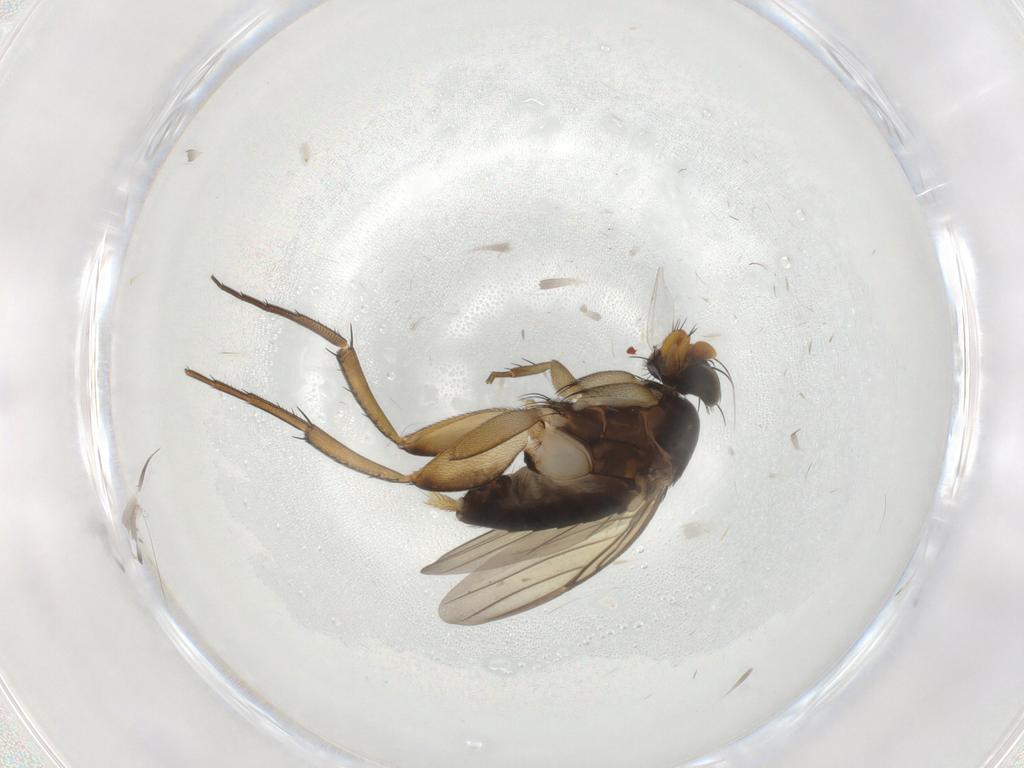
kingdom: Animalia
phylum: Arthropoda
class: Insecta
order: Diptera
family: Phoridae
